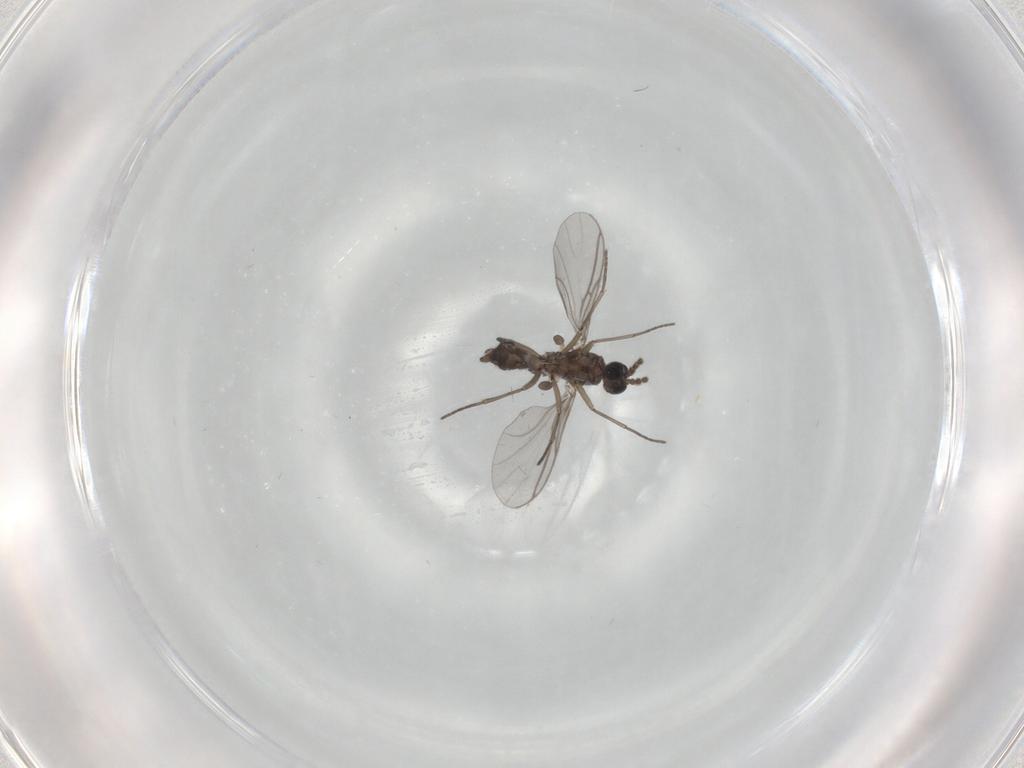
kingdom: Animalia
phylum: Arthropoda
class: Insecta
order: Diptera
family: Sciaridae
